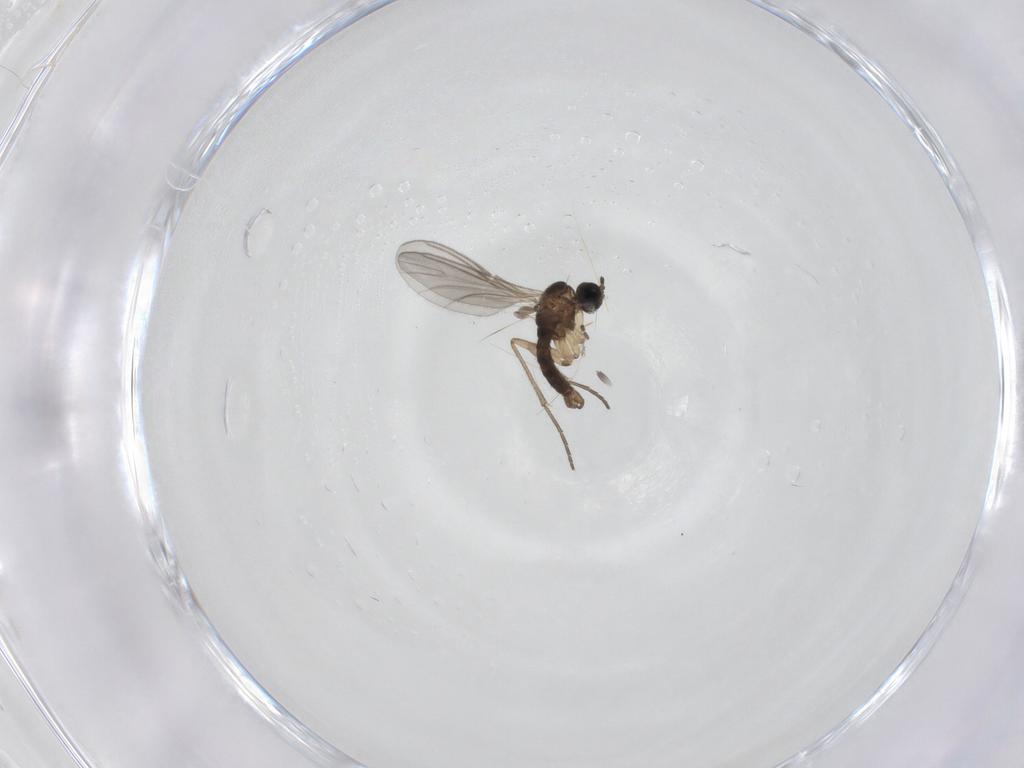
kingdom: Animalia
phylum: Arthropoda
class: Insecta
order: Diptera
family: Sciaridae
